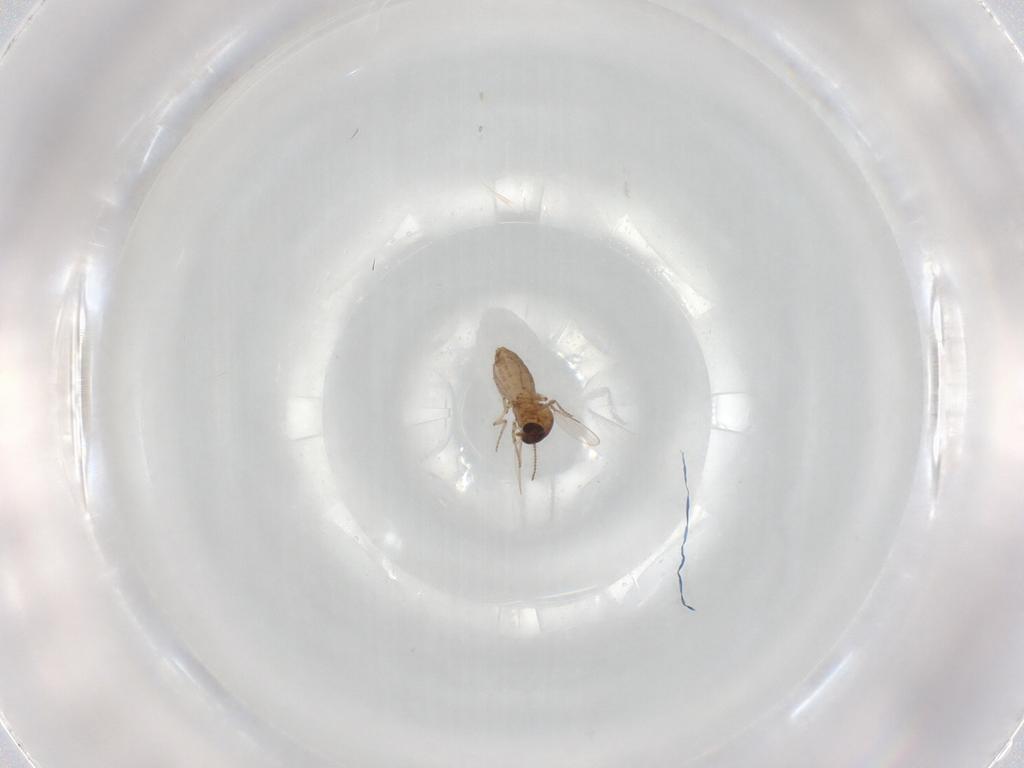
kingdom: Animalia
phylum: Arthropoda
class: Insecta
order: Diptera
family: Ceratopogonidae
